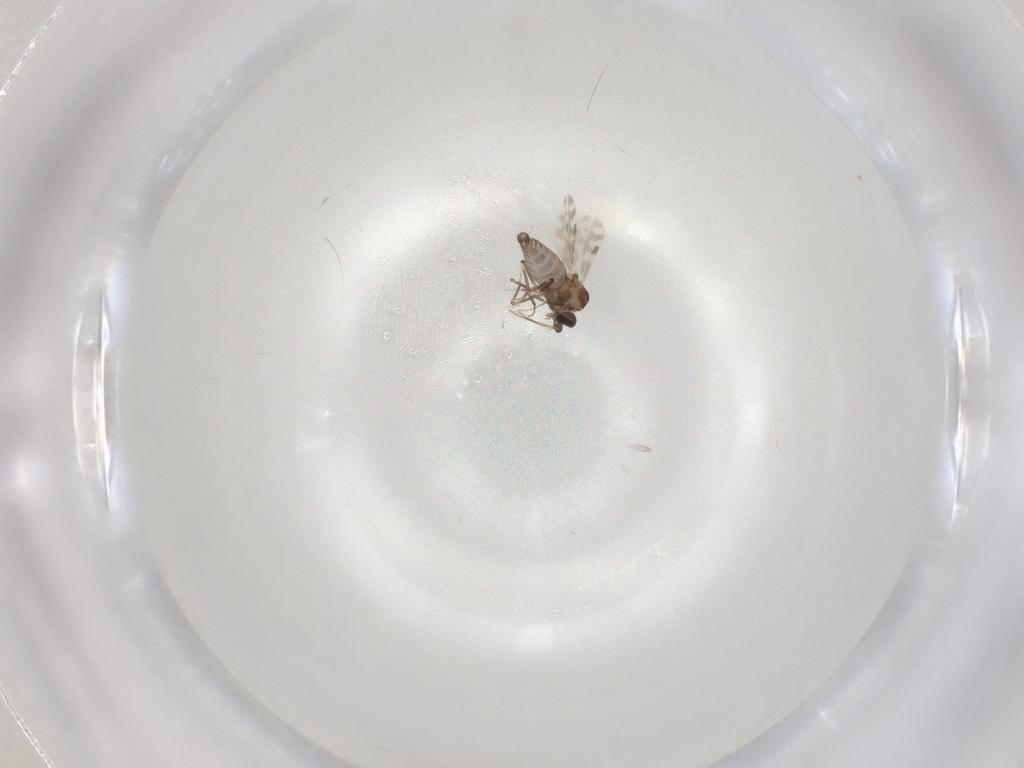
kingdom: Animalia
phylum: Arthropoda
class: Insecta
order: Diptera
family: Ceratopogonidae
